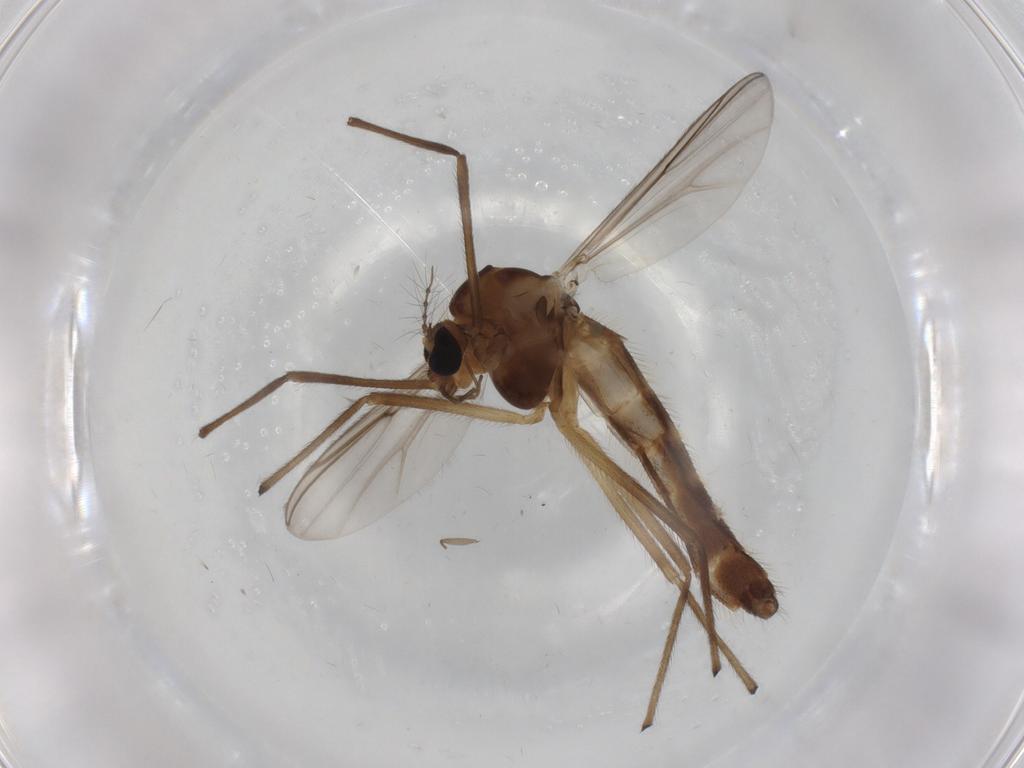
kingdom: Animalia
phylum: Arthropoda
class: Insecta
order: Diptera
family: Chironomidae
